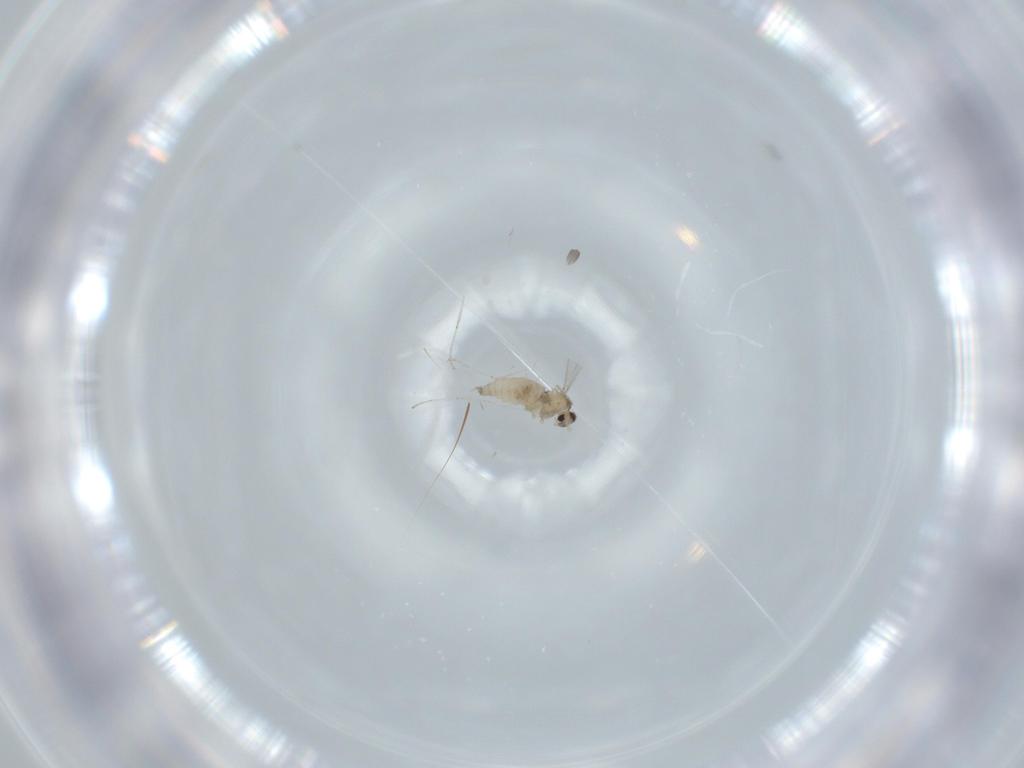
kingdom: Animalia
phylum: Arthropoda
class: Insecta
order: Diptera
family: Cecidomyiidae
